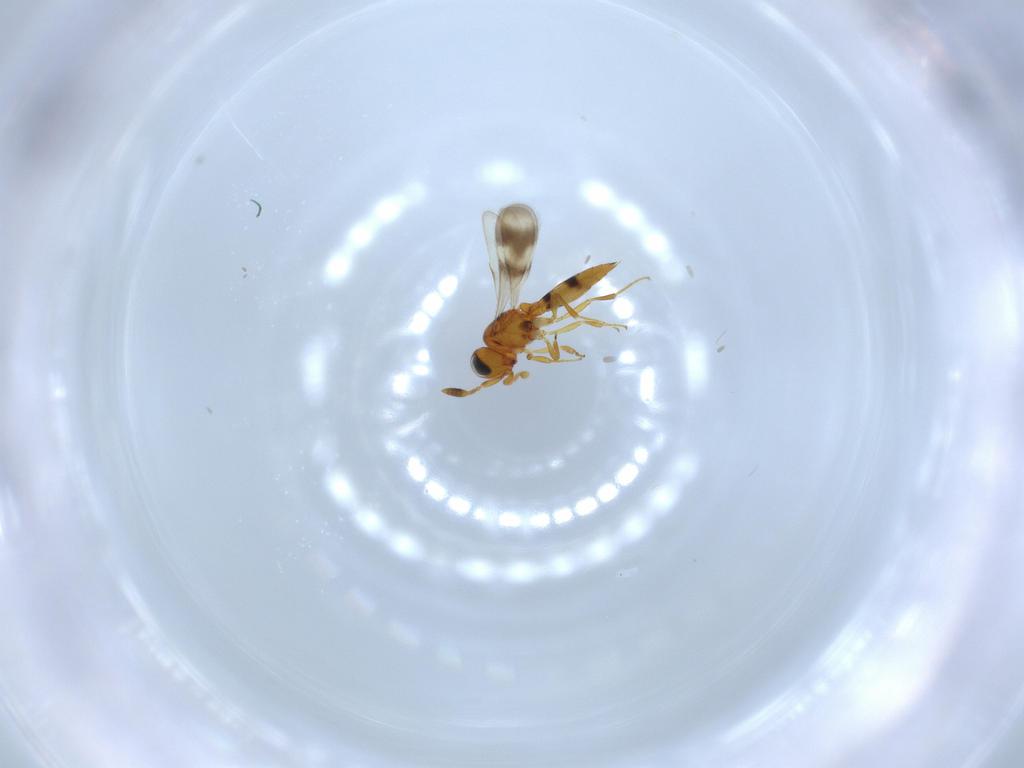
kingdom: Animalia
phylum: Arthropoda
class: Insecta
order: Hymenoptera
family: Scelionidae
